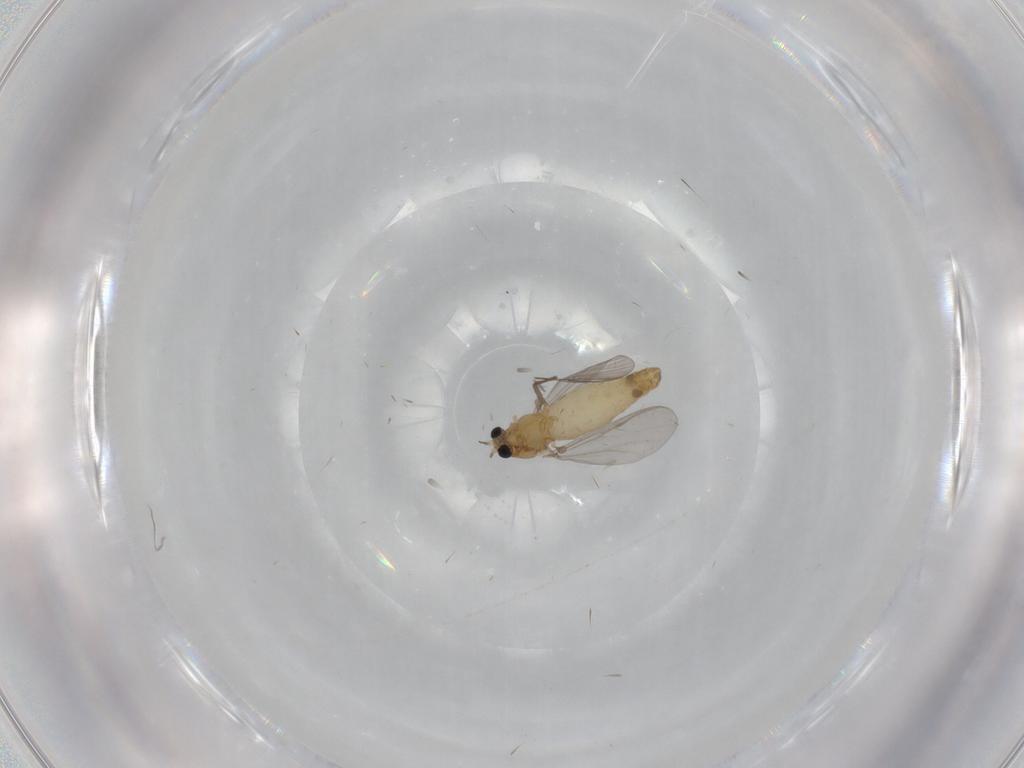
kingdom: Animalia
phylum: Arthropoda
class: Insecta
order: Diptera
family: Chironomidae
